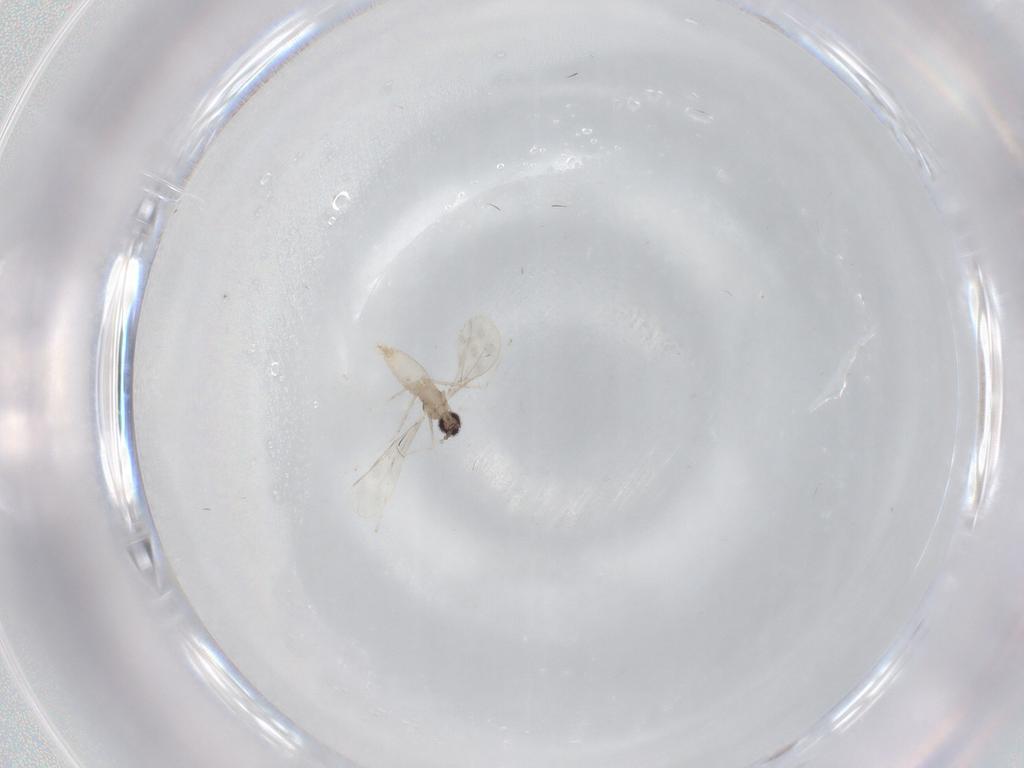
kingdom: Animalia
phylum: Arthropoda
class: Insecta
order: Diptera
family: Cecidomyiidae
